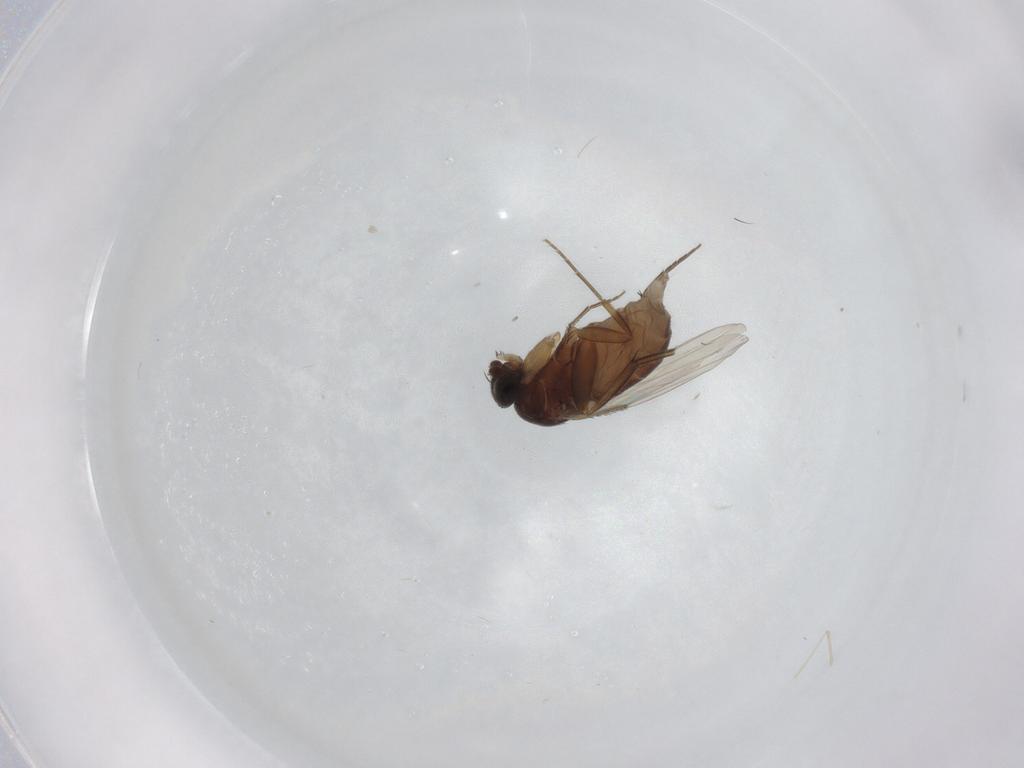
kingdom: Animalia
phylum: Arthropoda
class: Insecta
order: Diptera
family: Cecidomyiidae
